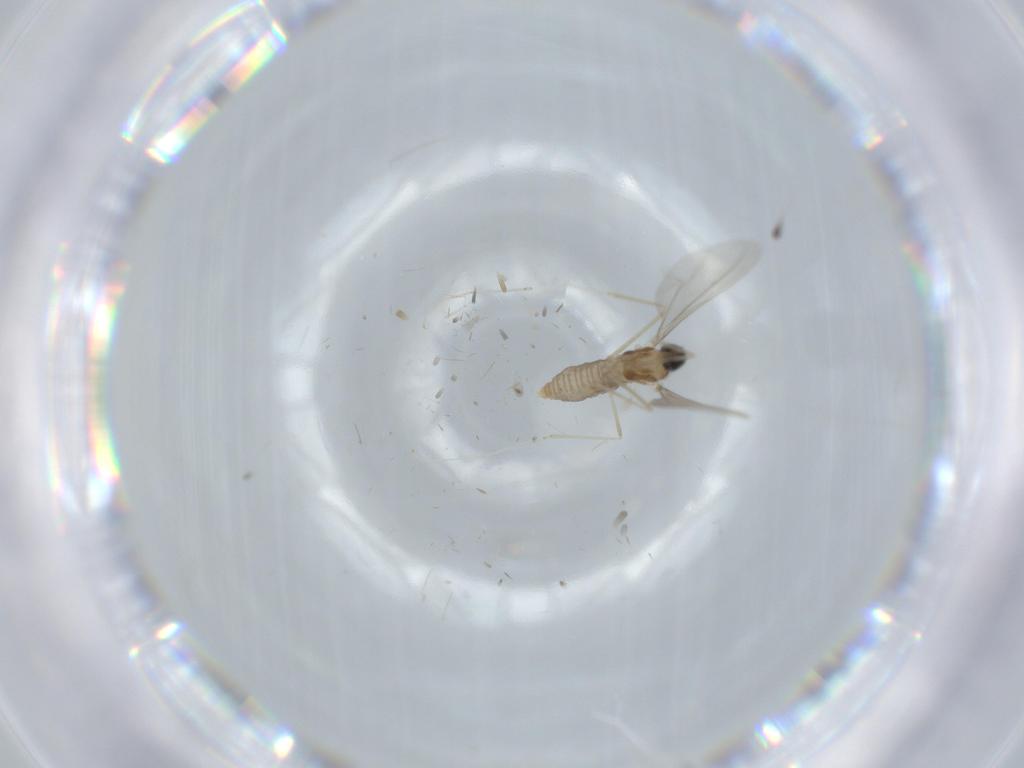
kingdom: Animalia
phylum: Arthropoda
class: Insecta
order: Diptera
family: Cecidomyiidae
